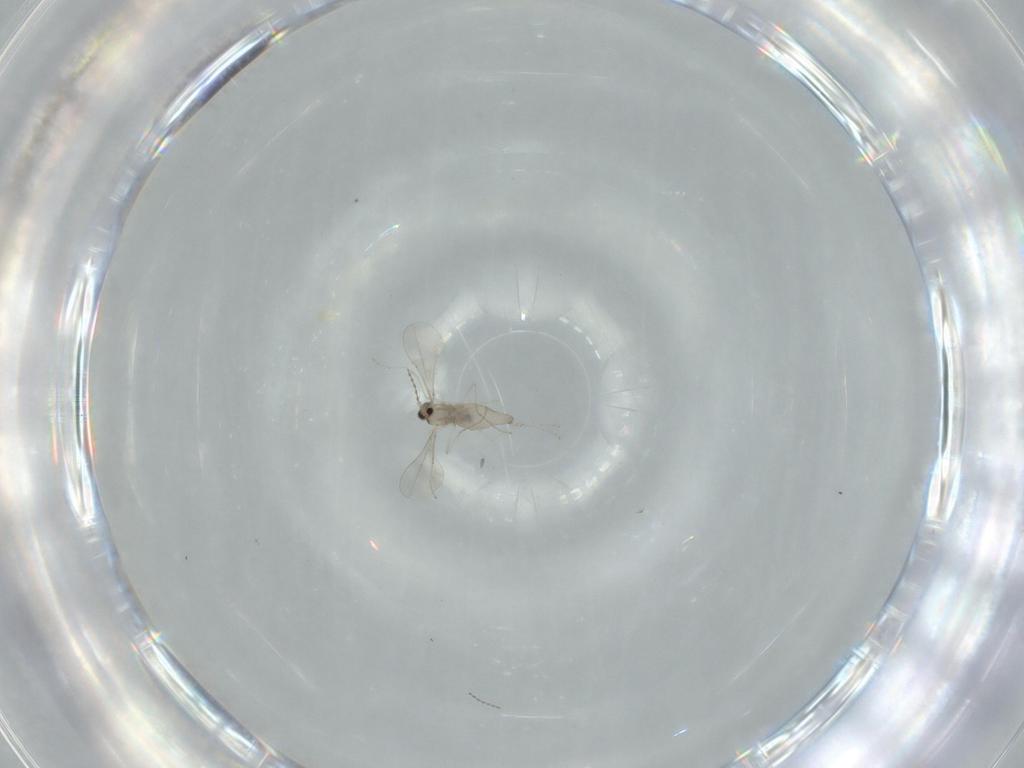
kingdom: Animalia
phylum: Arthropoda
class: Insecta
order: Diptera
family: Cecidomyiidae
